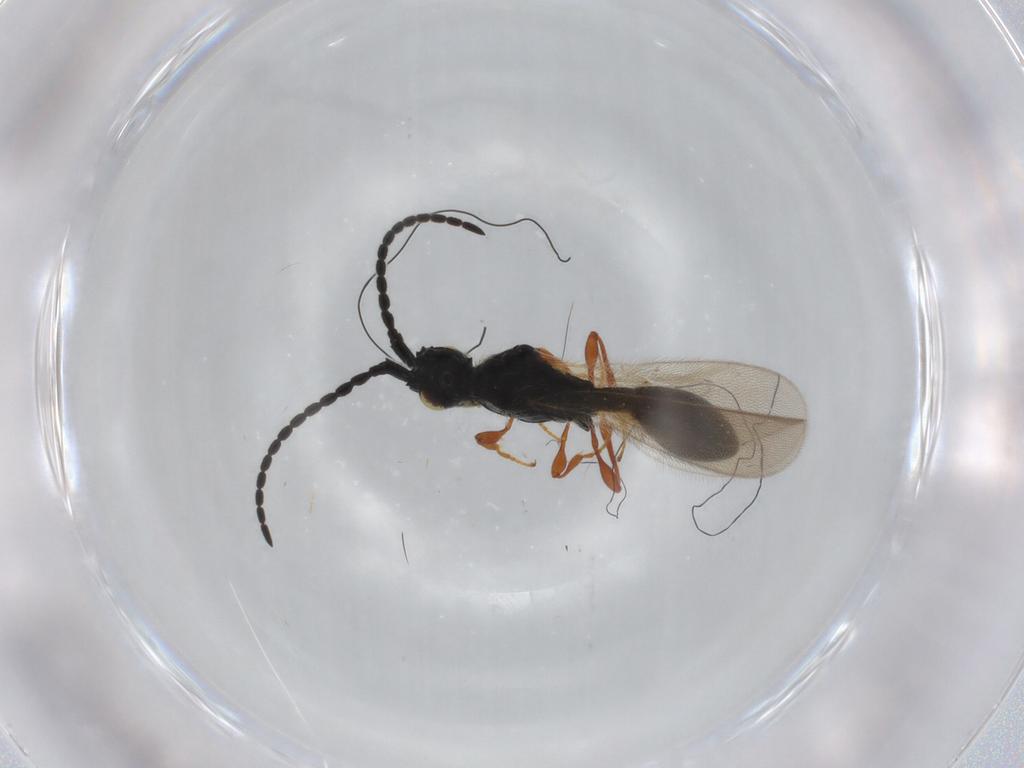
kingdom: Animalia
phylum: Arthropoda
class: Insecta
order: Hymenoptera
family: Diapriidae
